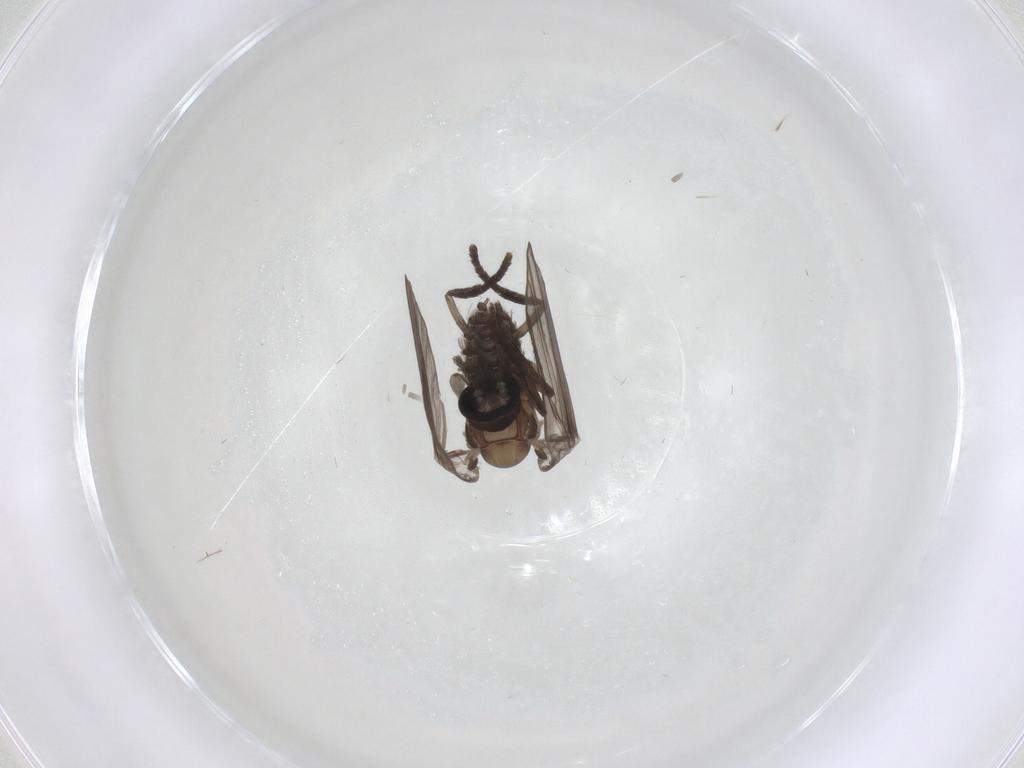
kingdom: Animalia
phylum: Arthropoda
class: Insecta
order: Diptera
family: Psychodidae
